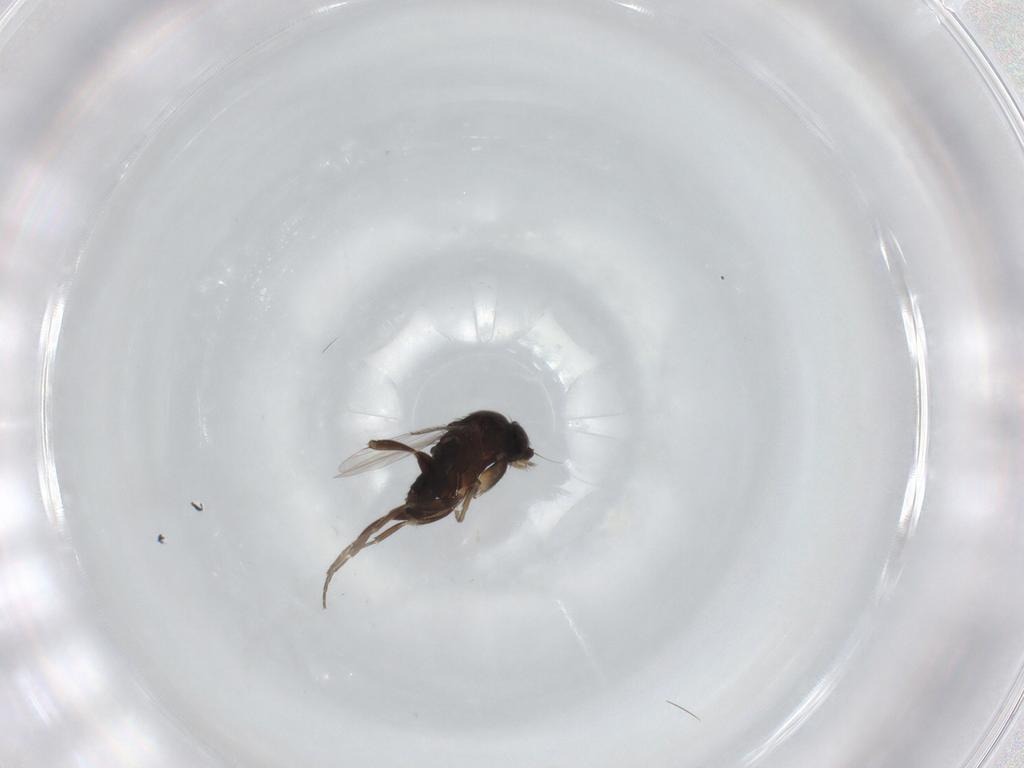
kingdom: Animalia
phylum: Arthropoda
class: Insecta
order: Diptera
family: Phoridae
